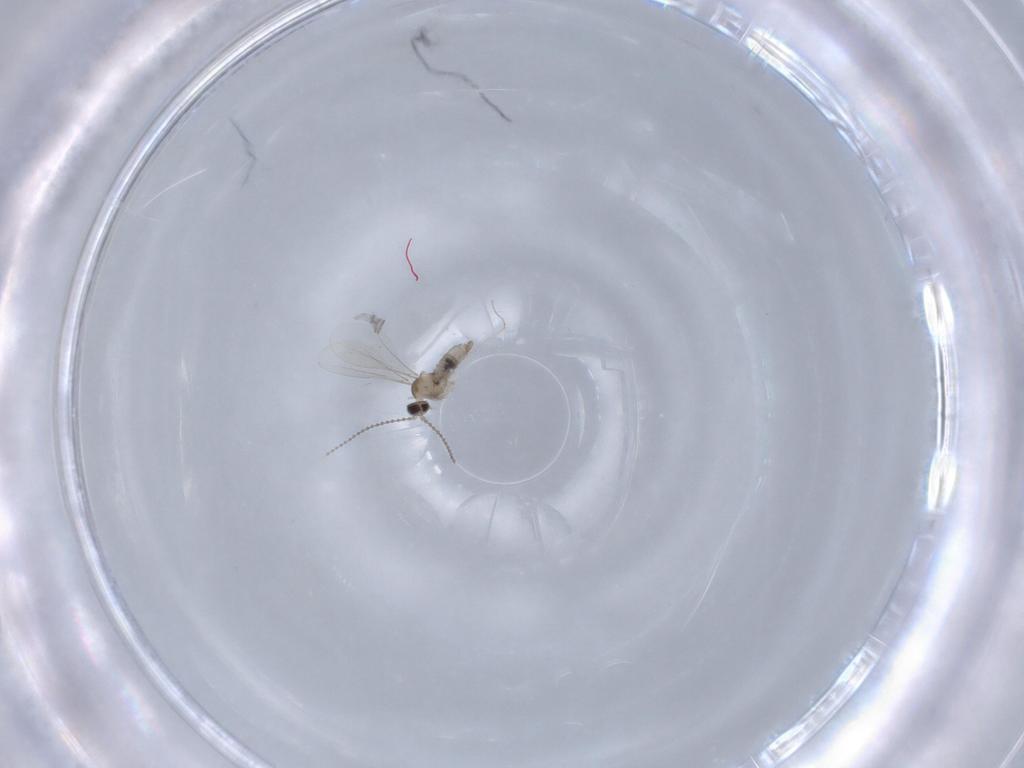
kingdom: Animalia
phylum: Arthropoda
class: Insecta
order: Diptera
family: Cecidomyiidae
